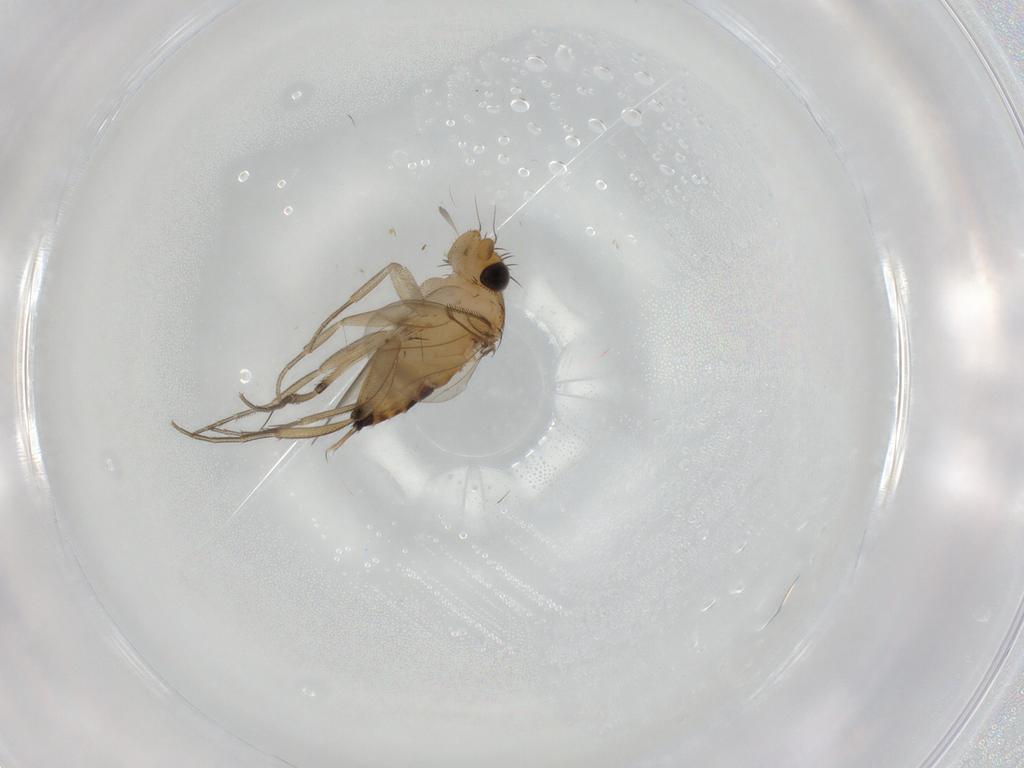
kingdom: Animalia
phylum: Arthropoda
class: Insecta
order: Diptera
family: Phoridae
